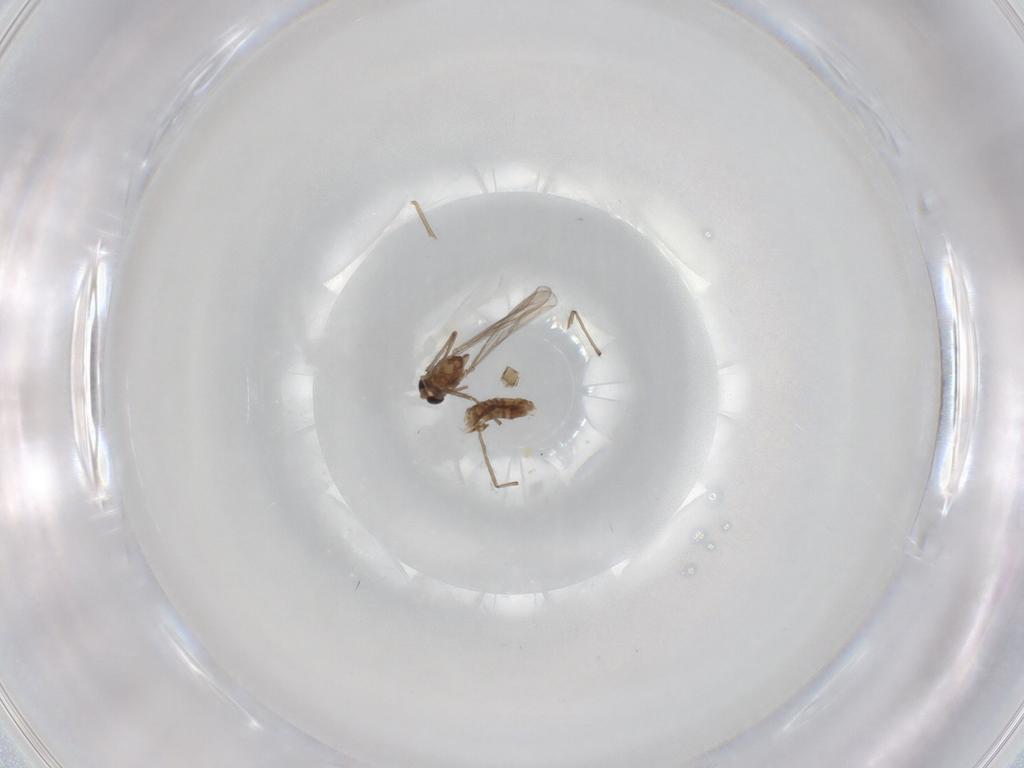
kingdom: Animalia
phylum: Arthropoda
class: Insecta
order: Diptera
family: Chironomidae
